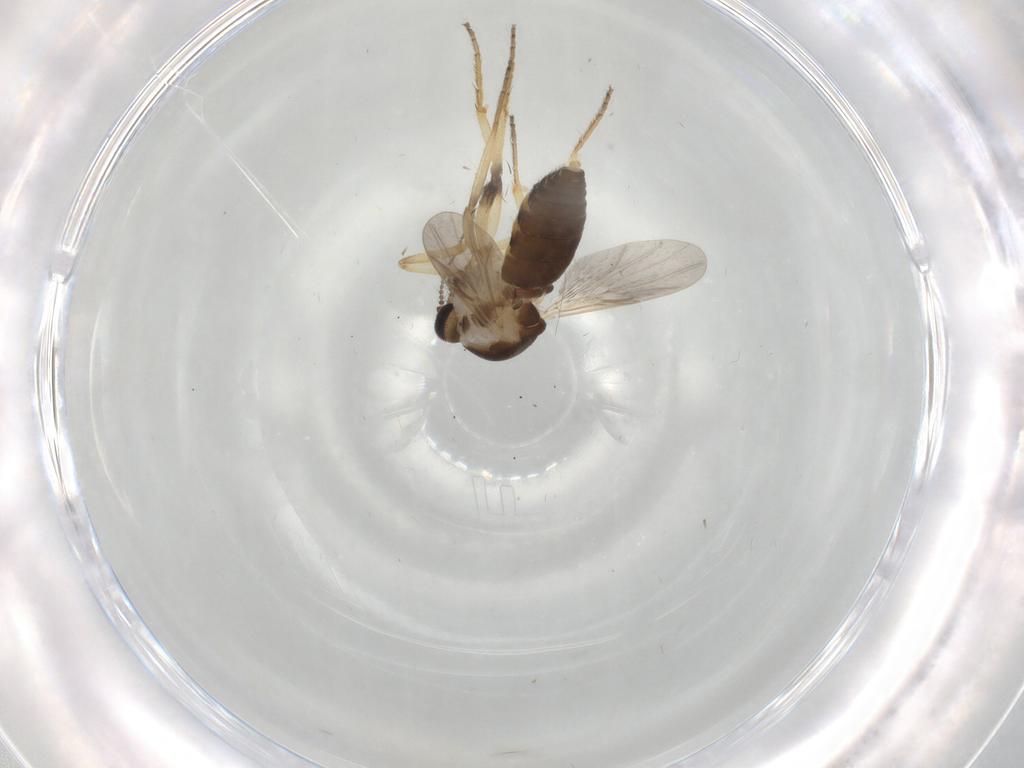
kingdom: Animalia
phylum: Arthropoda
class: Insecta
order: Diptera
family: Ceratopogonidae
